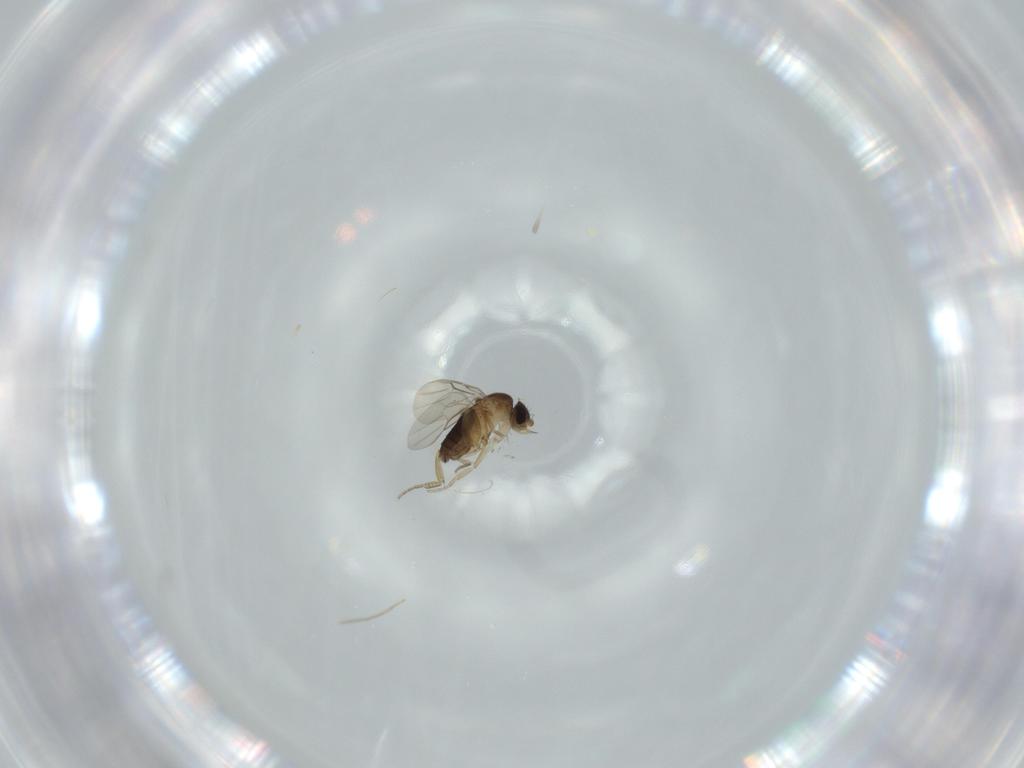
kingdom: Animalia
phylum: Arthropoda
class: Insecta
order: Diptera
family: Phoridae
